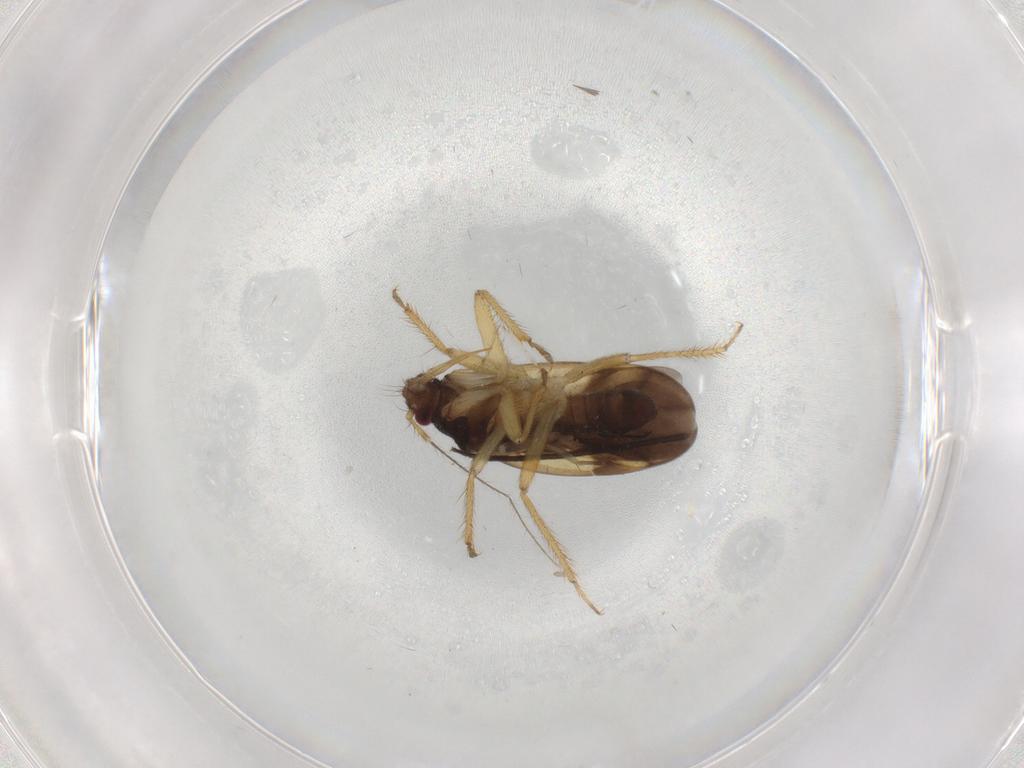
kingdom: Animalia
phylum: Arthropoda
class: Insecta
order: Hemiptera
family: Ceratocombidae
